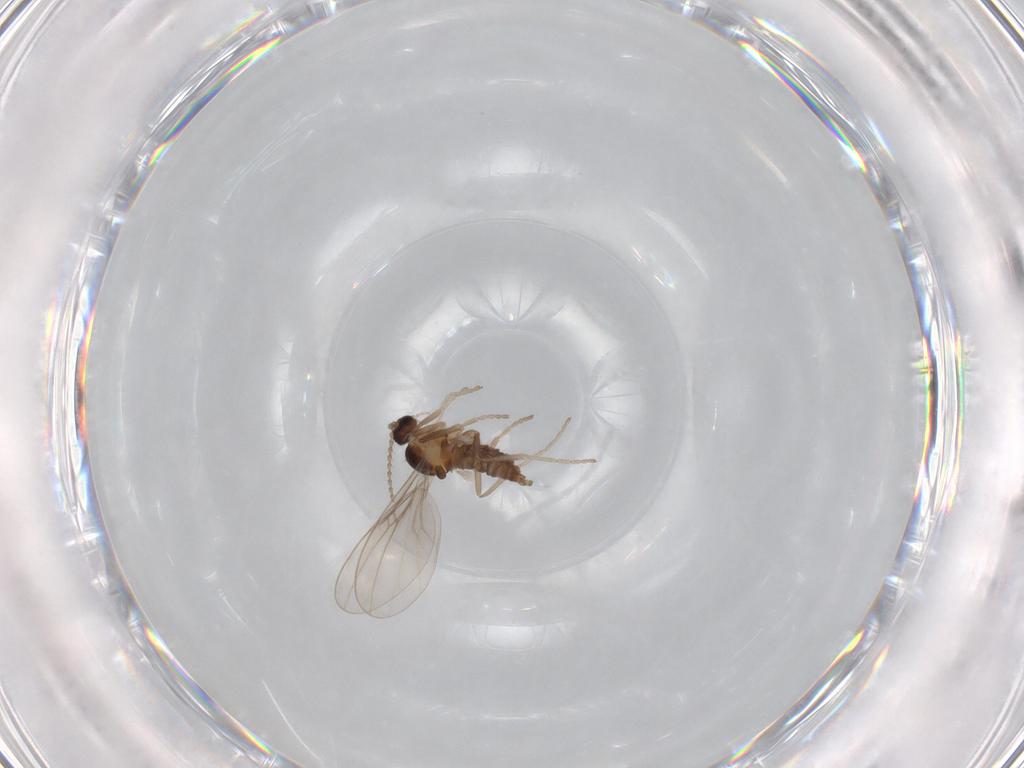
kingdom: Animalia
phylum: Arthropoda
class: Insecta
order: Diptera
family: Cecidomyiidae
